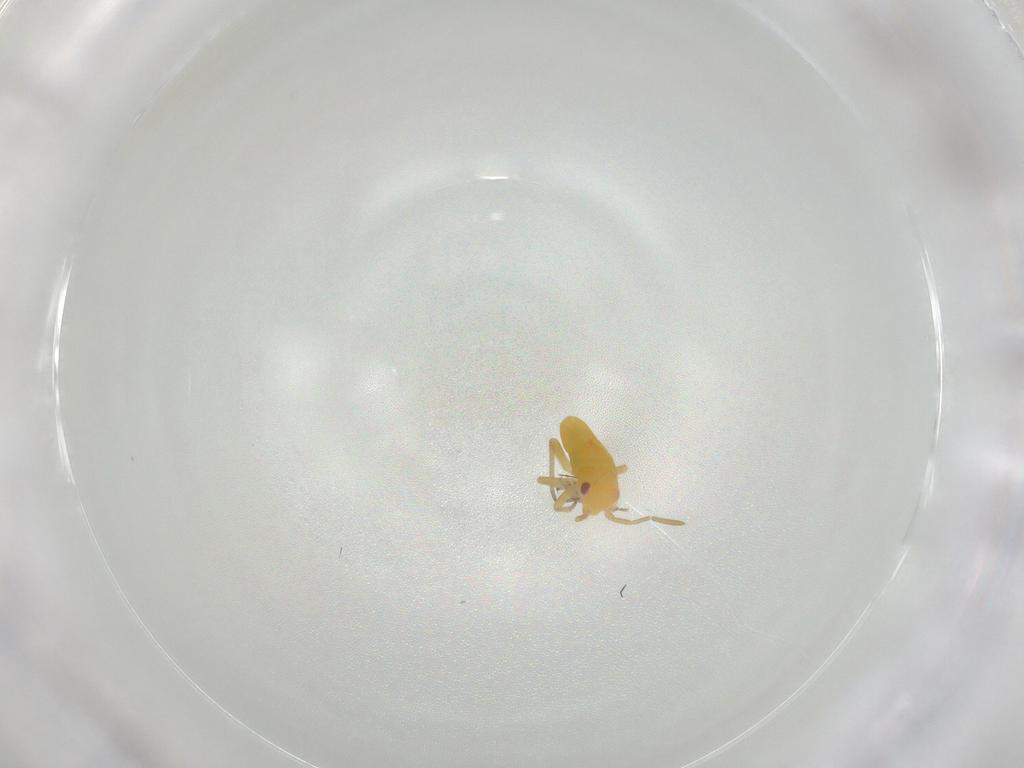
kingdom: Animalia
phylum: Arthropoda
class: Insecta
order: Hemiptera
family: Miridae
